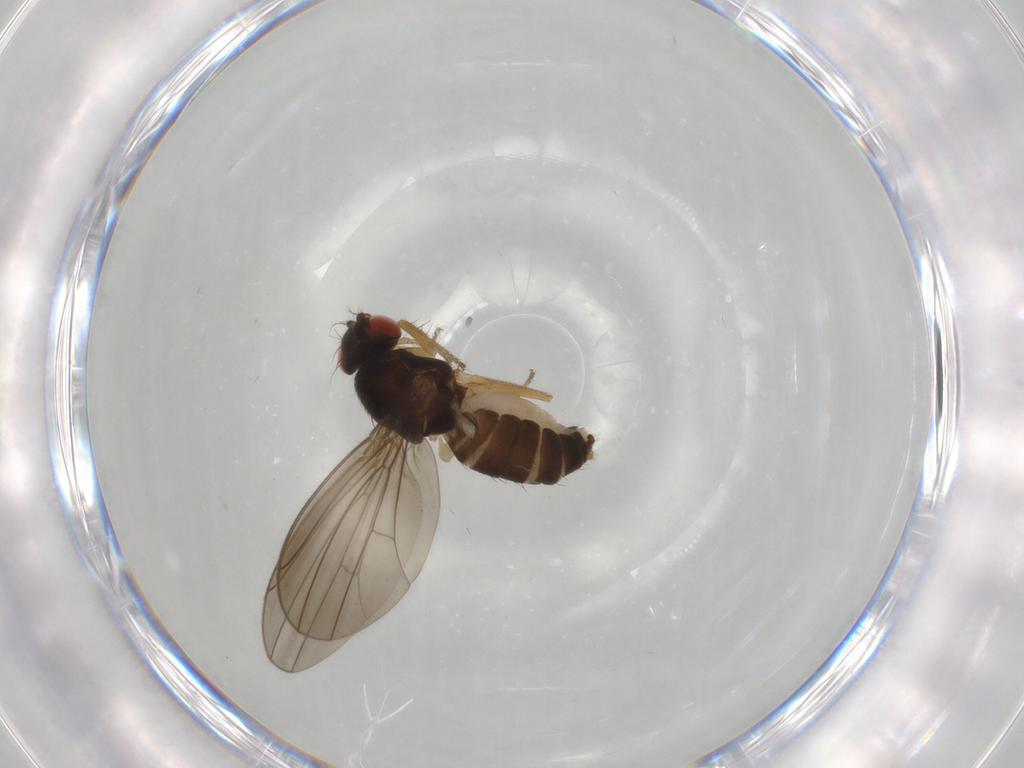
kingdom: Animalia
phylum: Arthropoda
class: Insecta
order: Diptera
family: Drosophilidae
